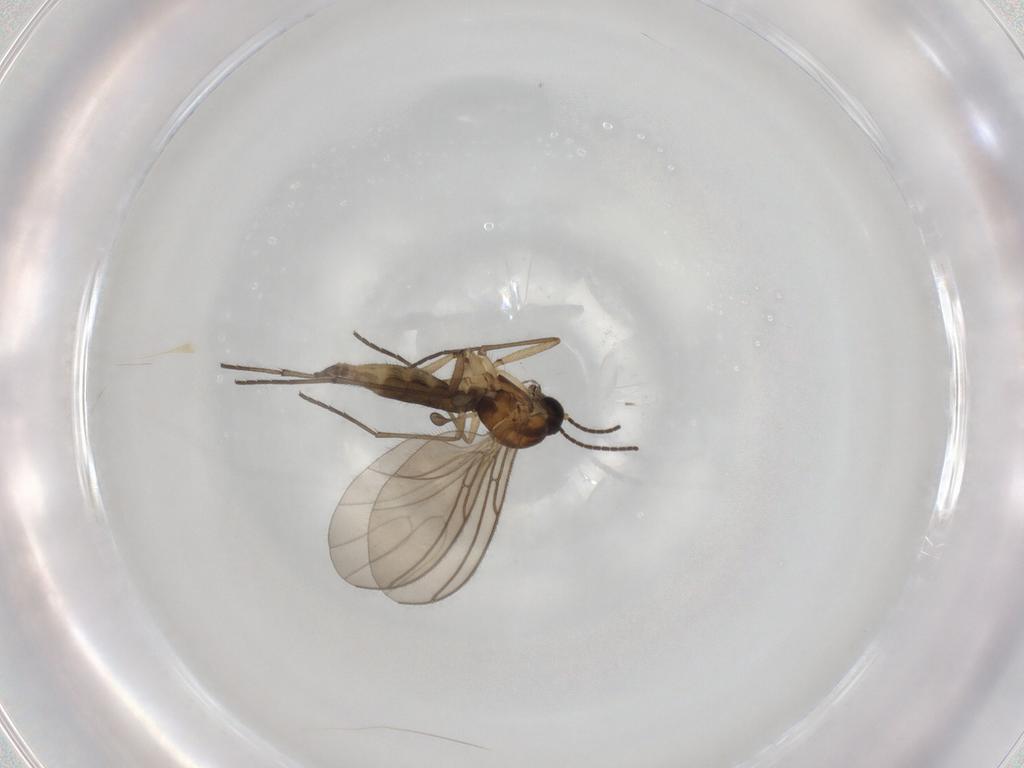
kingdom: Animalia
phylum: Arthropoda
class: Insecta
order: Diptera
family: Sciaridae
